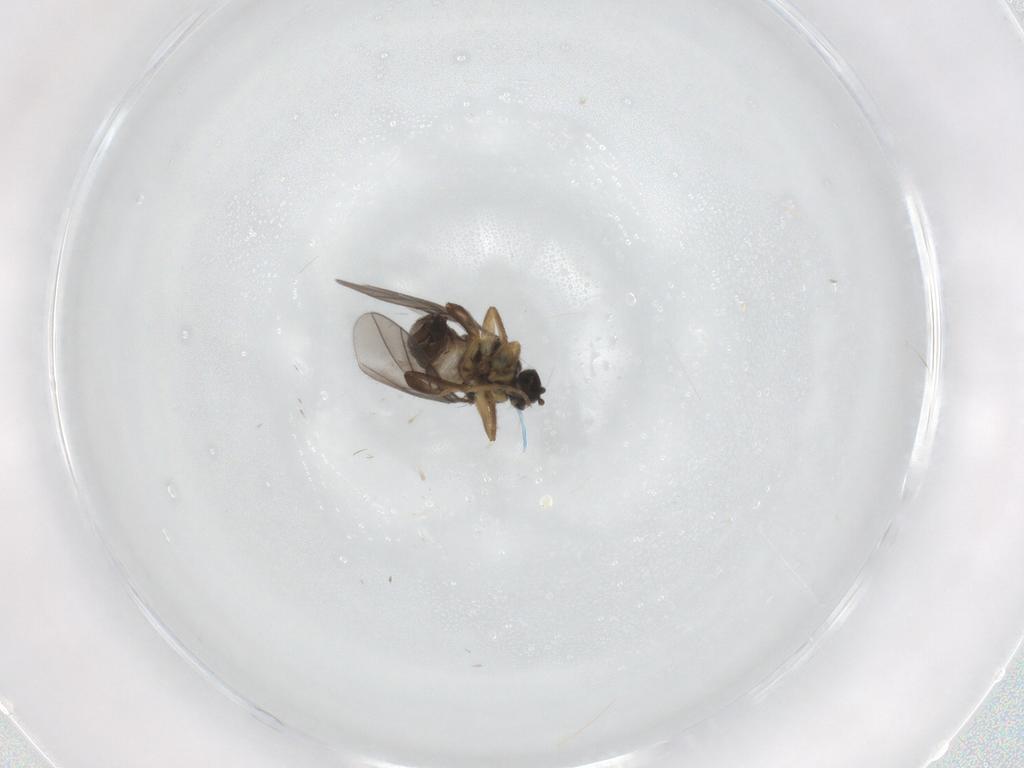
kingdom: Animalia
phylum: Arthropoda
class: Insecta
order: Diptera
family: Hybotidae
